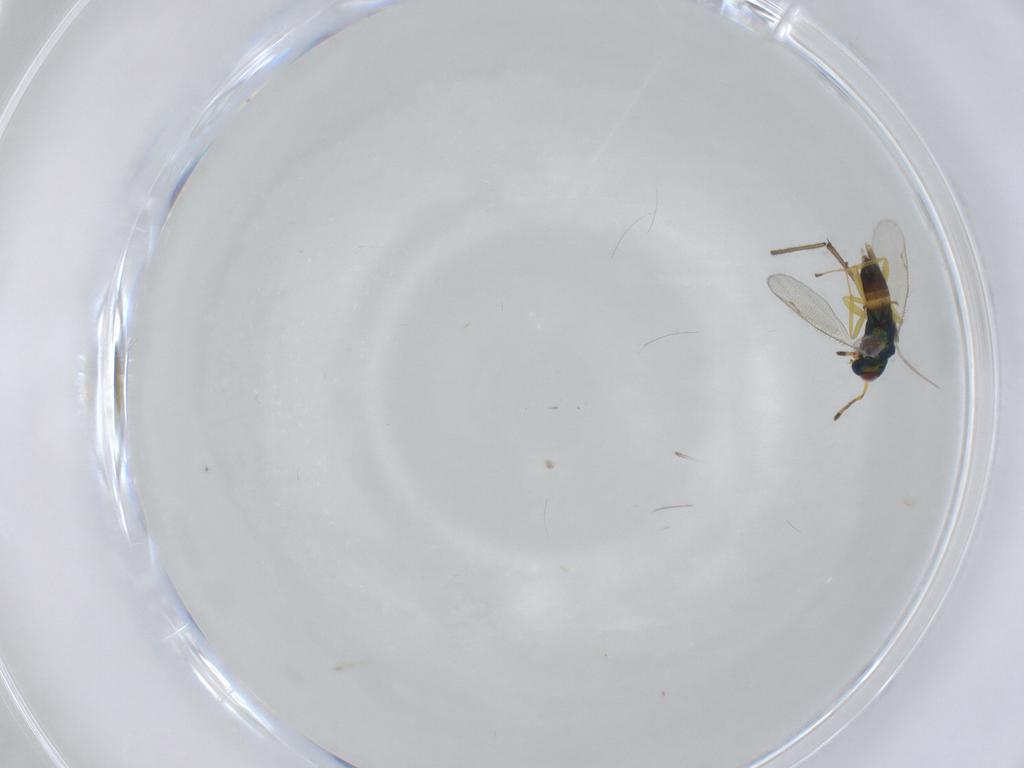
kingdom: Animalia
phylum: Arthropoda
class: Insecta
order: Hymenoptera
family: Pteromalidae
